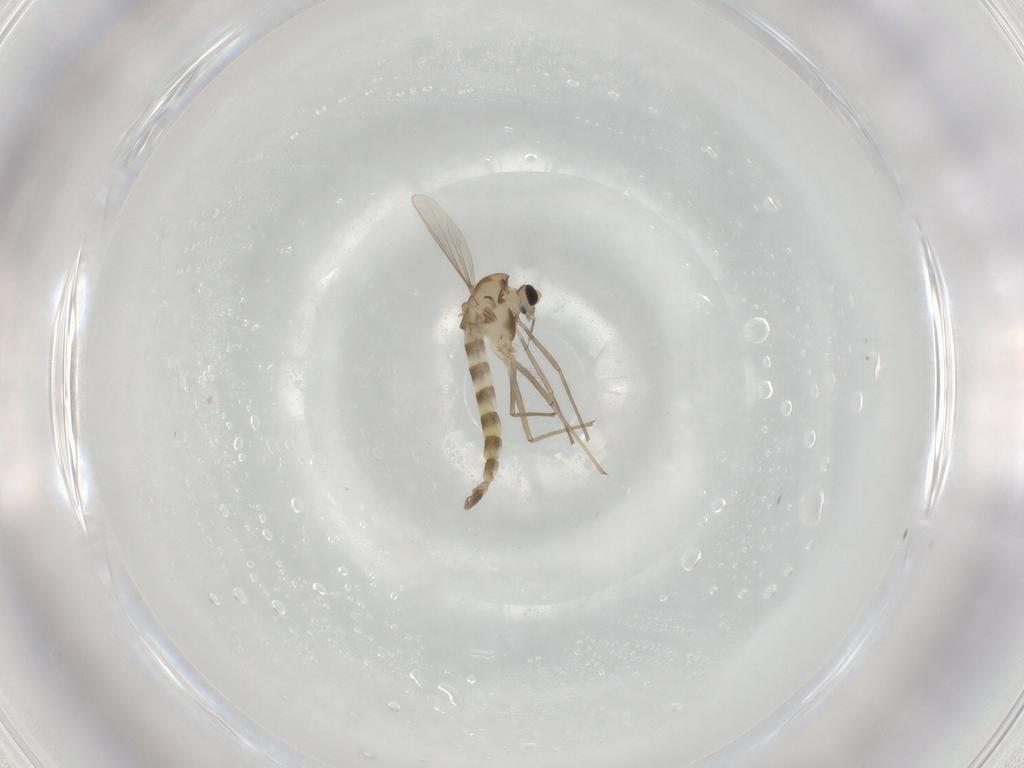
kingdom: Animalia
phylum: Arthropoda
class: Insecta
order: Diptera
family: Chironomidae
